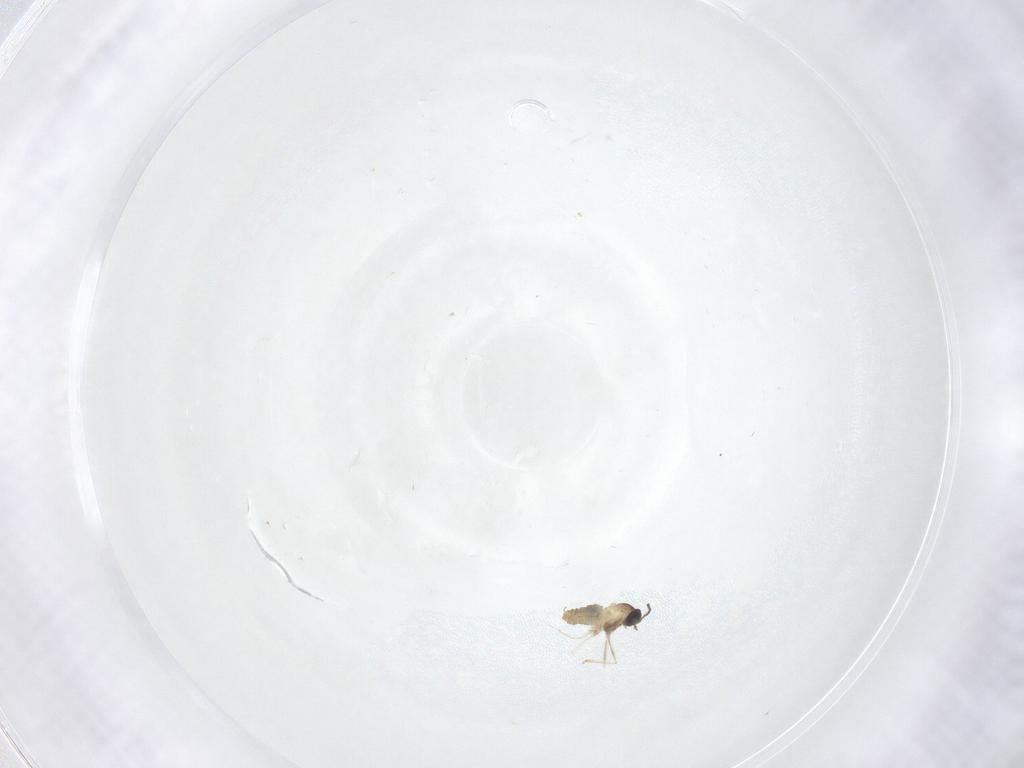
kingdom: Animalia
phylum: Arthropoda
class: Insecta
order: Diptera
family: Cecidomyiidae
